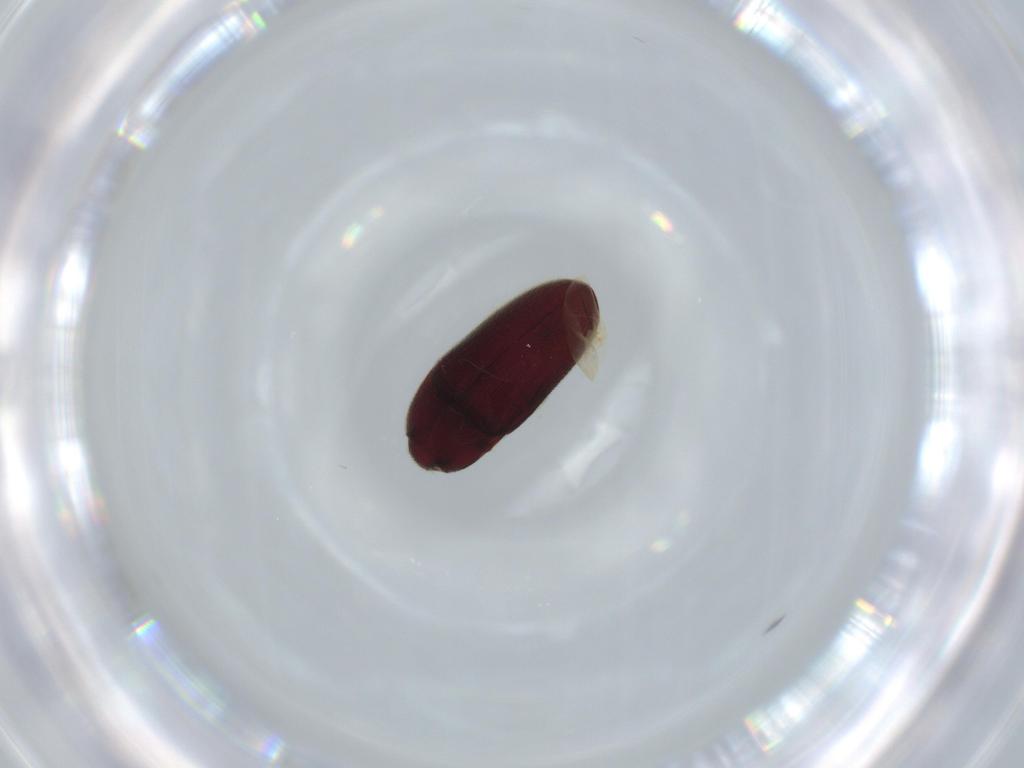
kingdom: Animalia
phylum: Arthropoda
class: Insecta
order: Coleoptera
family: Throscidae
